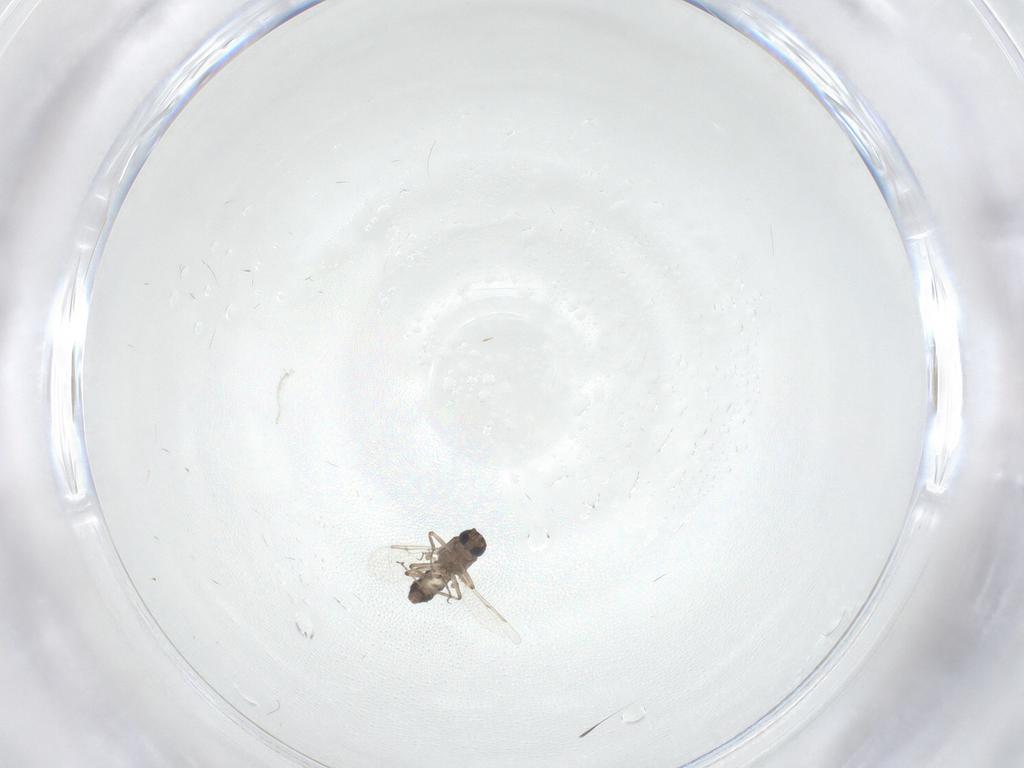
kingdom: Animalia
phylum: Arthropoda
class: Insecta
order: Diptera
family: Ceratopogonidae
